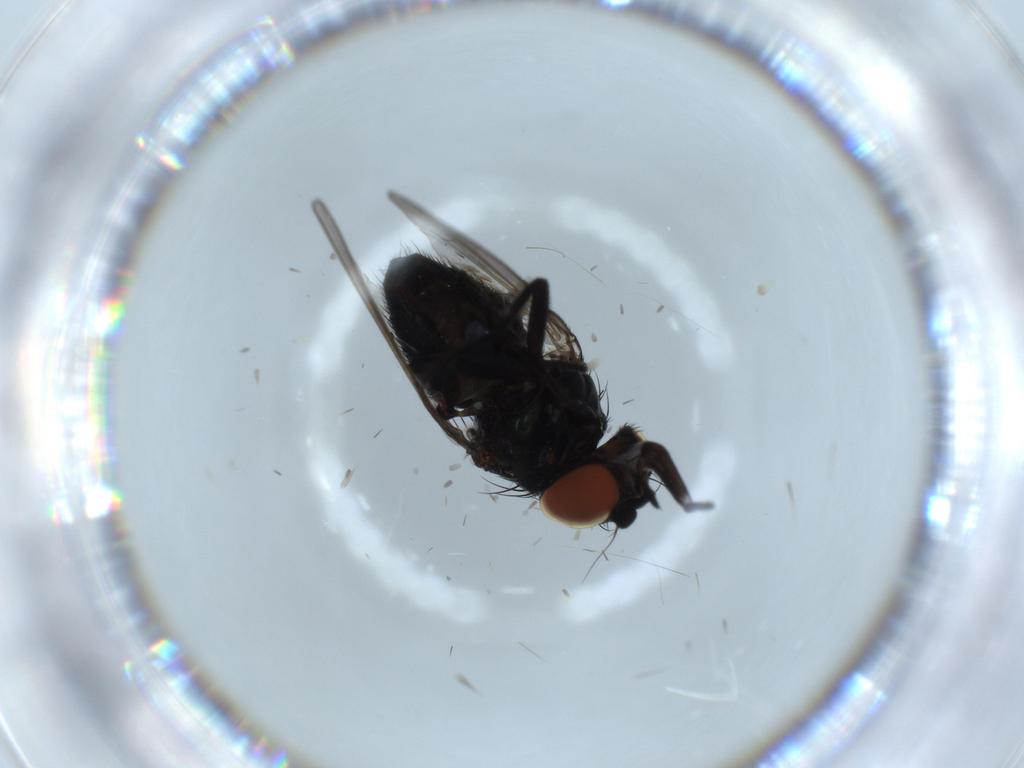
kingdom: Animalia
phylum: Arthropoda
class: Insecta
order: Diptera
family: Milichiidae
